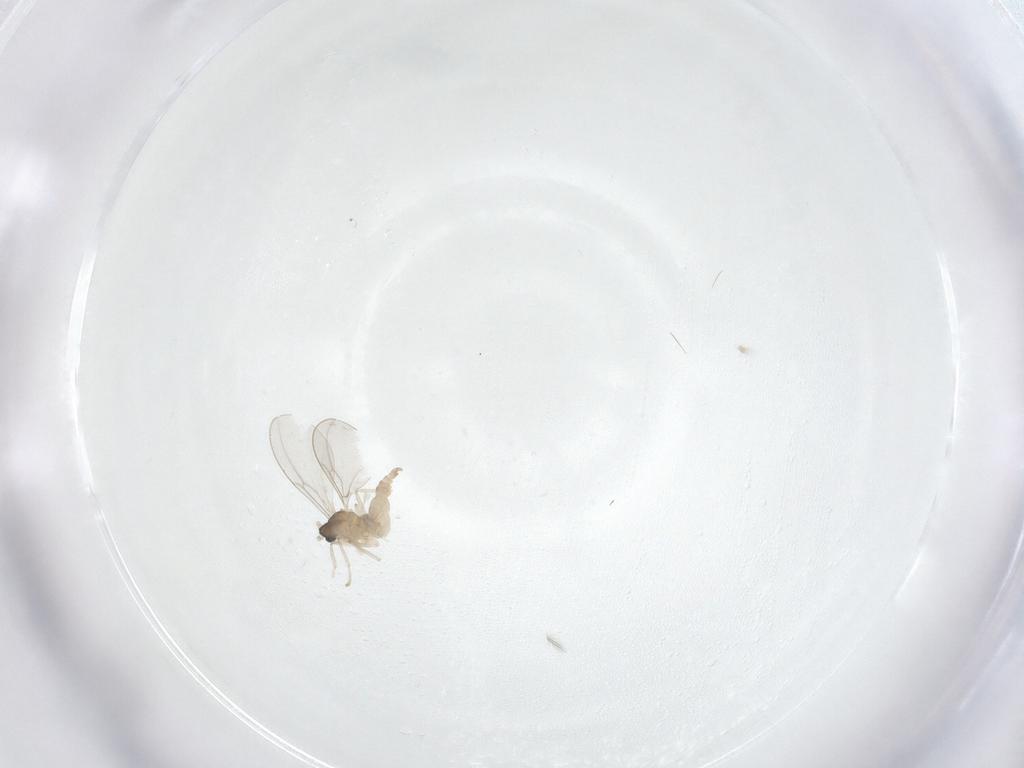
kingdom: Animalia
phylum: Arthropoda
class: Insecta
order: Diptera
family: Cecidomyiidae
